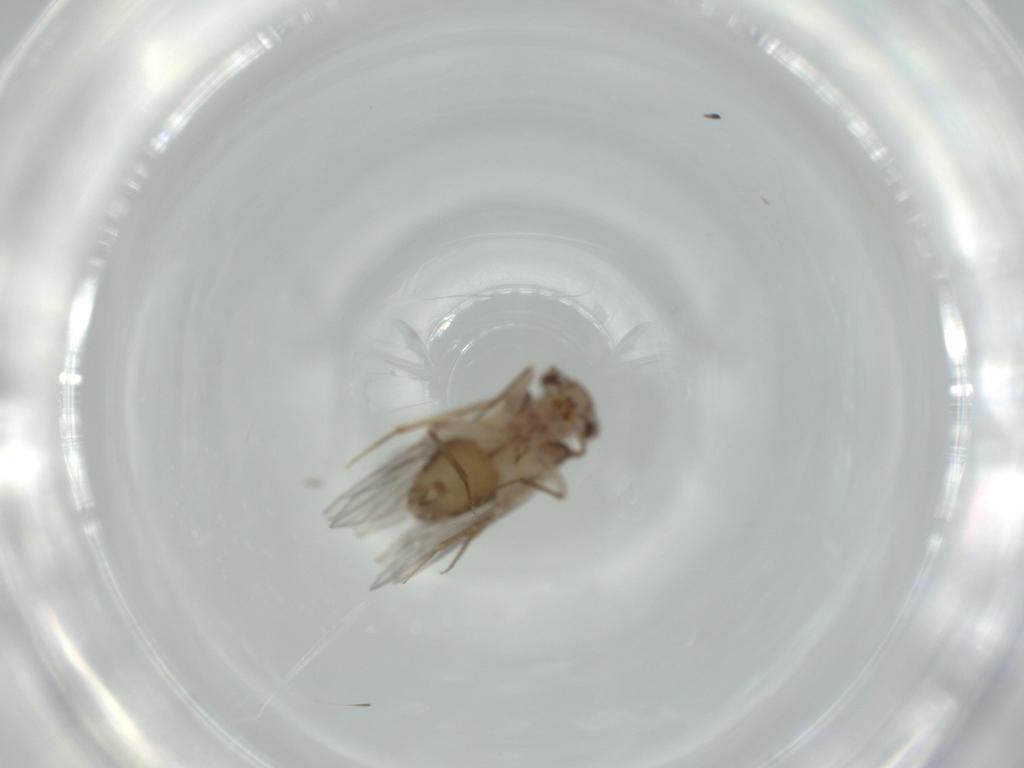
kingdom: Animalia
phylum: Arthropoda
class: Insecta
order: Psocodea
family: Lepidopsocidae
